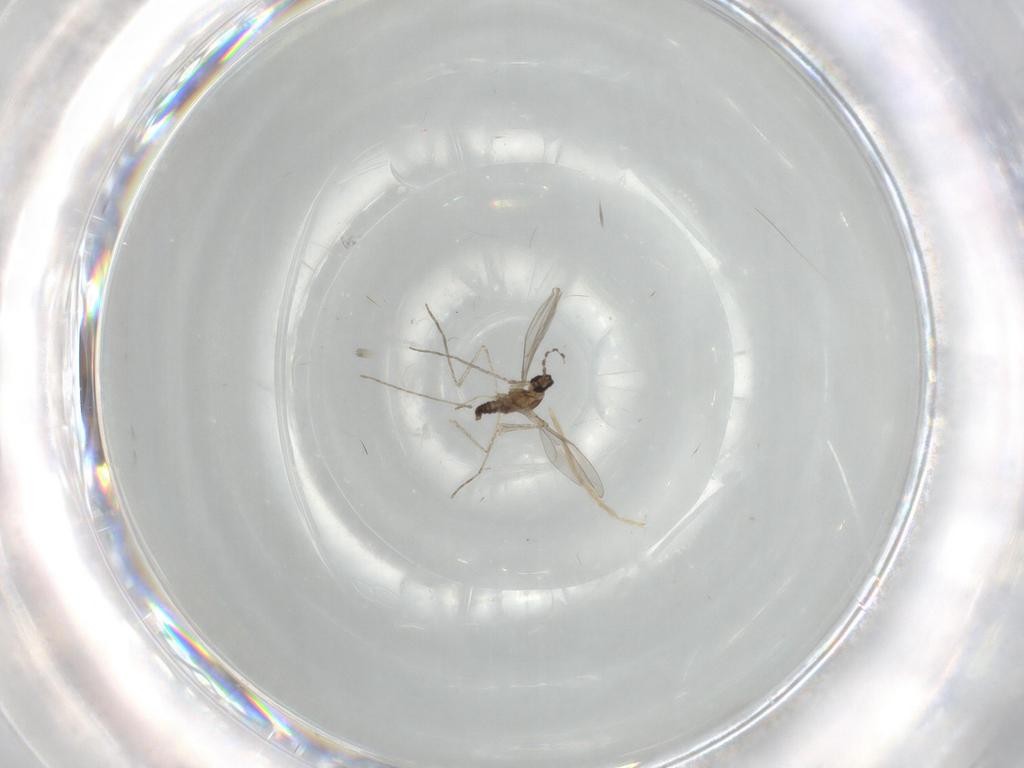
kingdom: Animalia
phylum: Arthropoda
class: Insecta
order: Diptera
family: Cecidomyiidae
